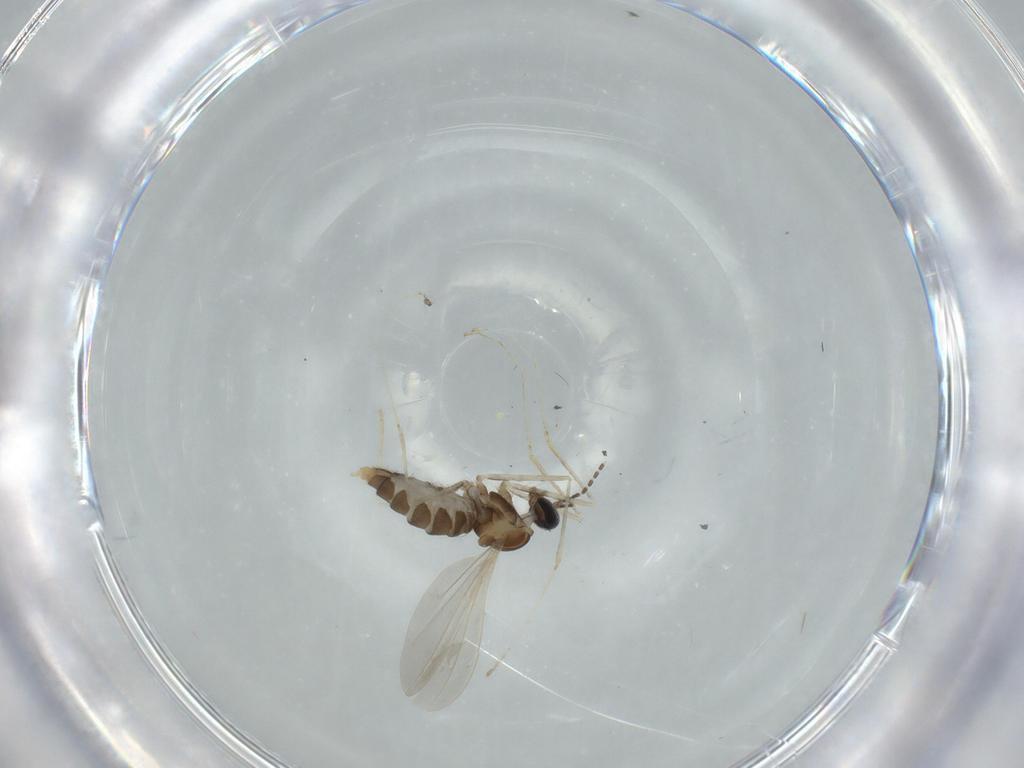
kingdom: Animalia
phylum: Arthropoda
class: Insecta
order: Diptera
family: Cecidomyiidae
